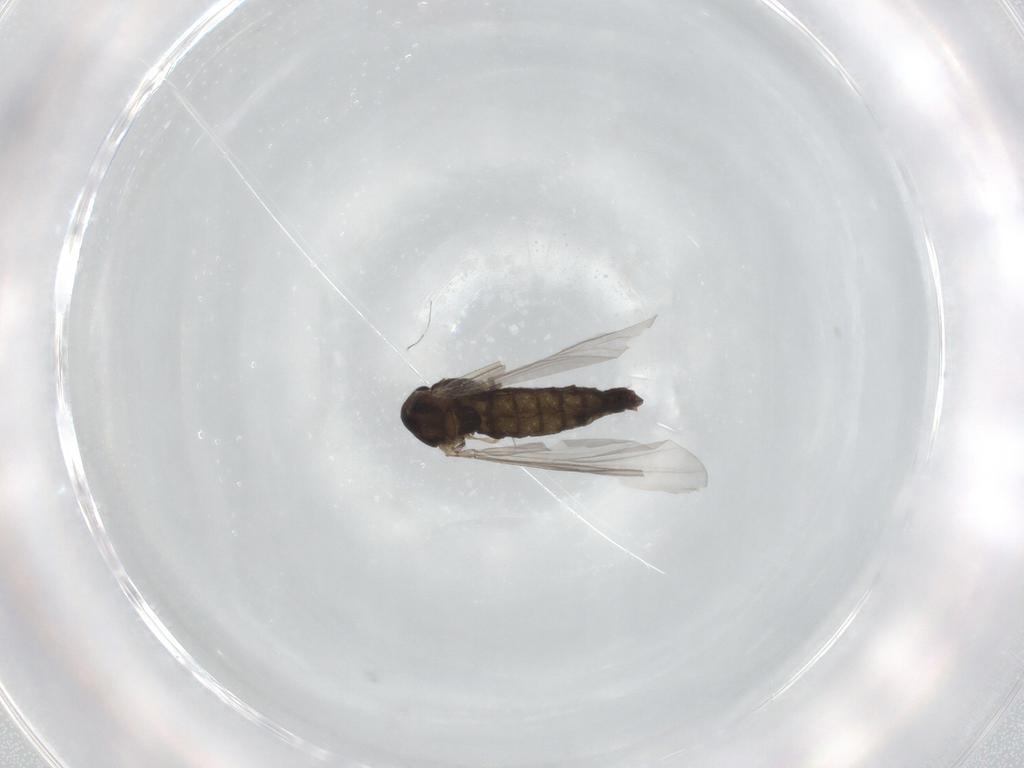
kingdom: Animalia
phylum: Arthropoda
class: Insecta
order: Diptera
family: Chironomidae
